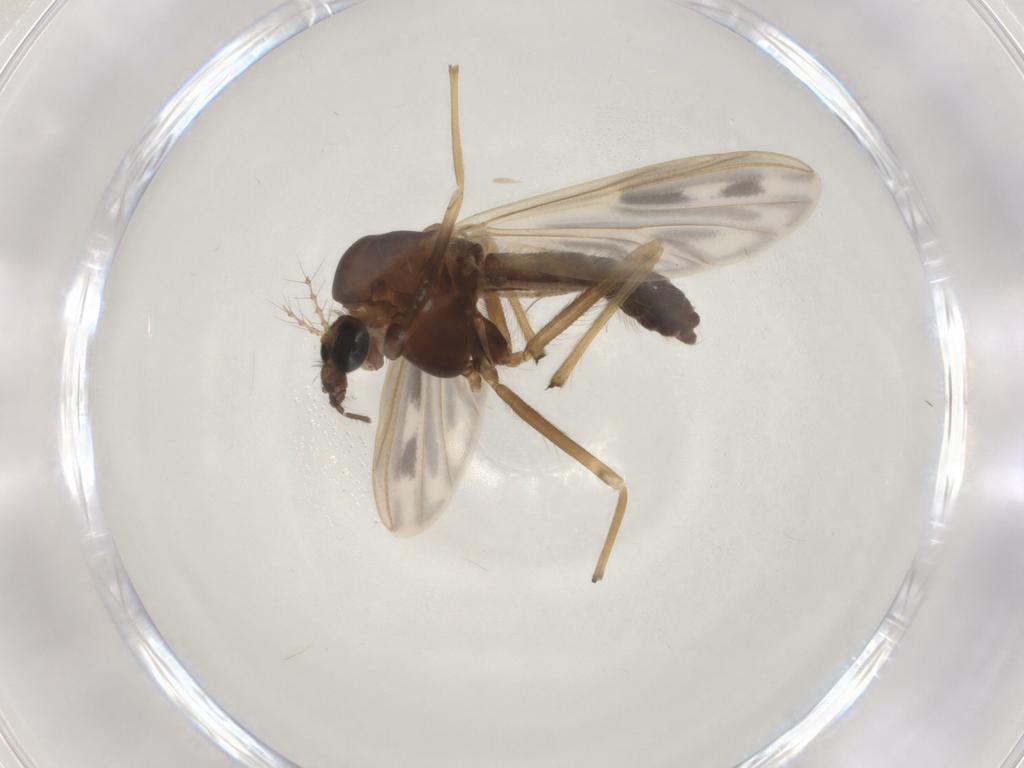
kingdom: Animalia
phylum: Arthropoda
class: Insecta
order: Diptera
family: Chironomidae
